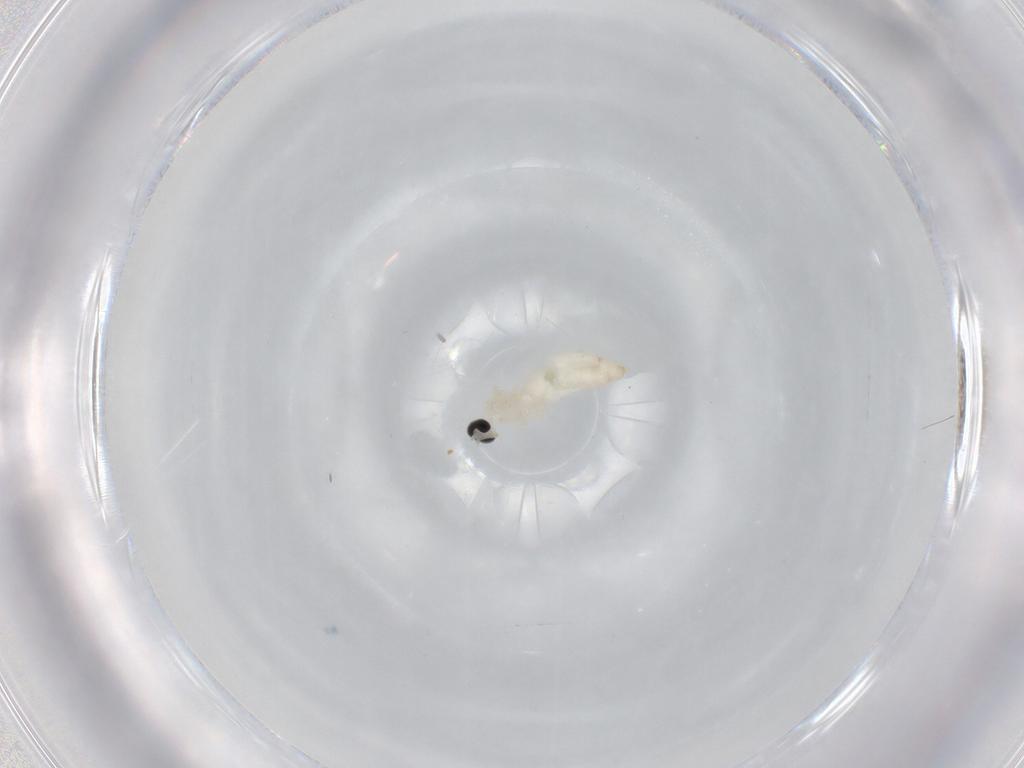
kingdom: Animalia
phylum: Arthropoda
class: Insecta
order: Diptera
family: Cecidomyiidae
